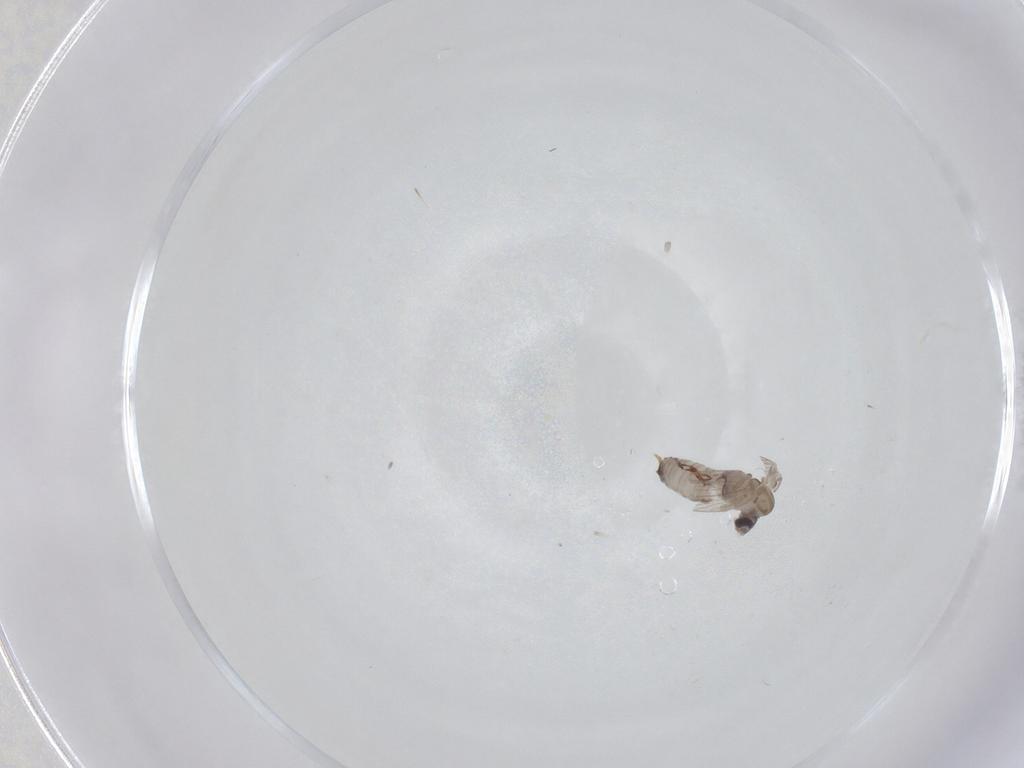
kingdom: Animalia
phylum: Arthropoda
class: Insecta
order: Diptera
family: Psychodidae
